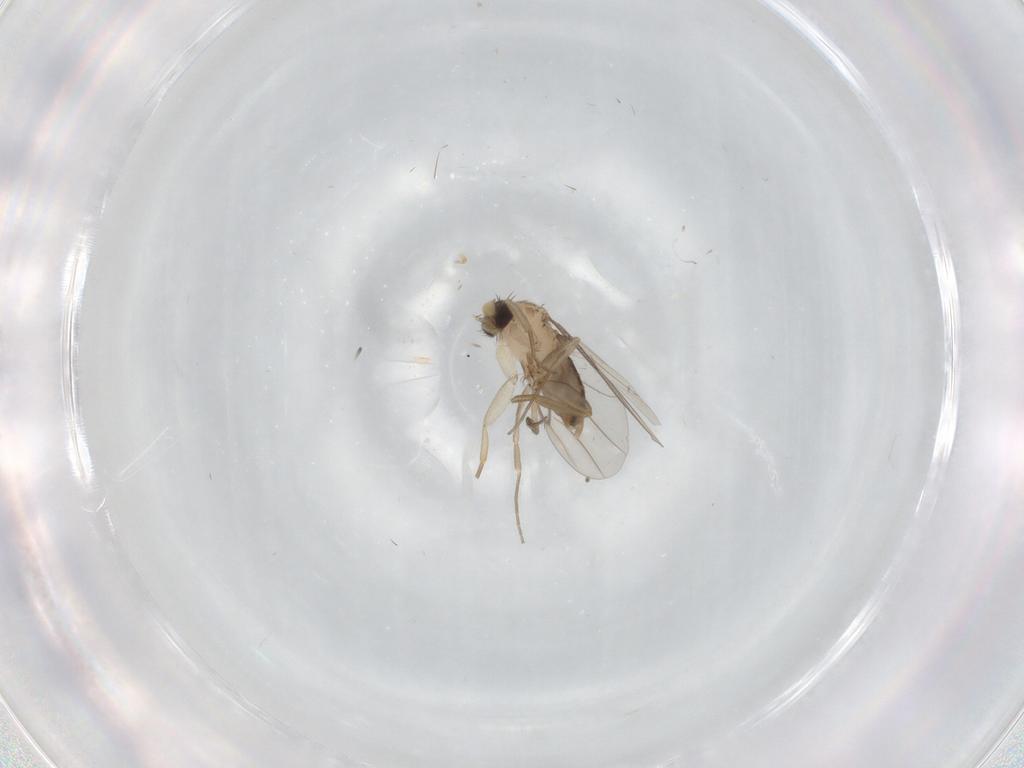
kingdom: Animalia
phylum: Arthropoda
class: Insecta
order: Diptera
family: Phoridae
